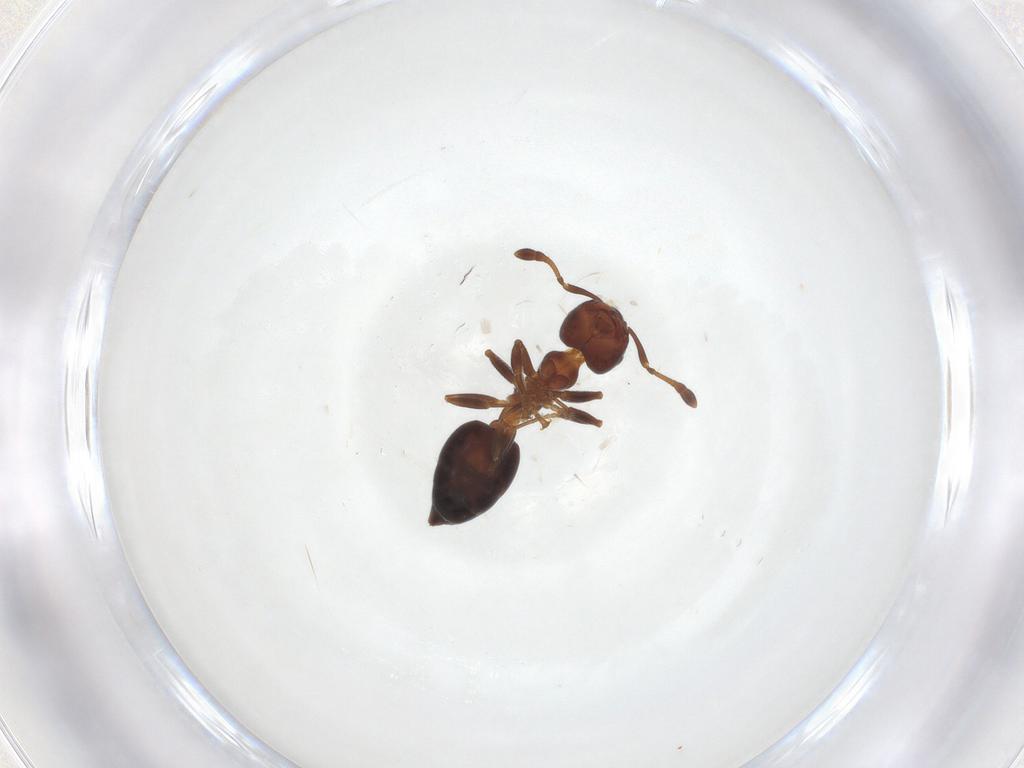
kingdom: Animalia
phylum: Arthropoda
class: Insecta
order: Hymenoptera
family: Formicidae
